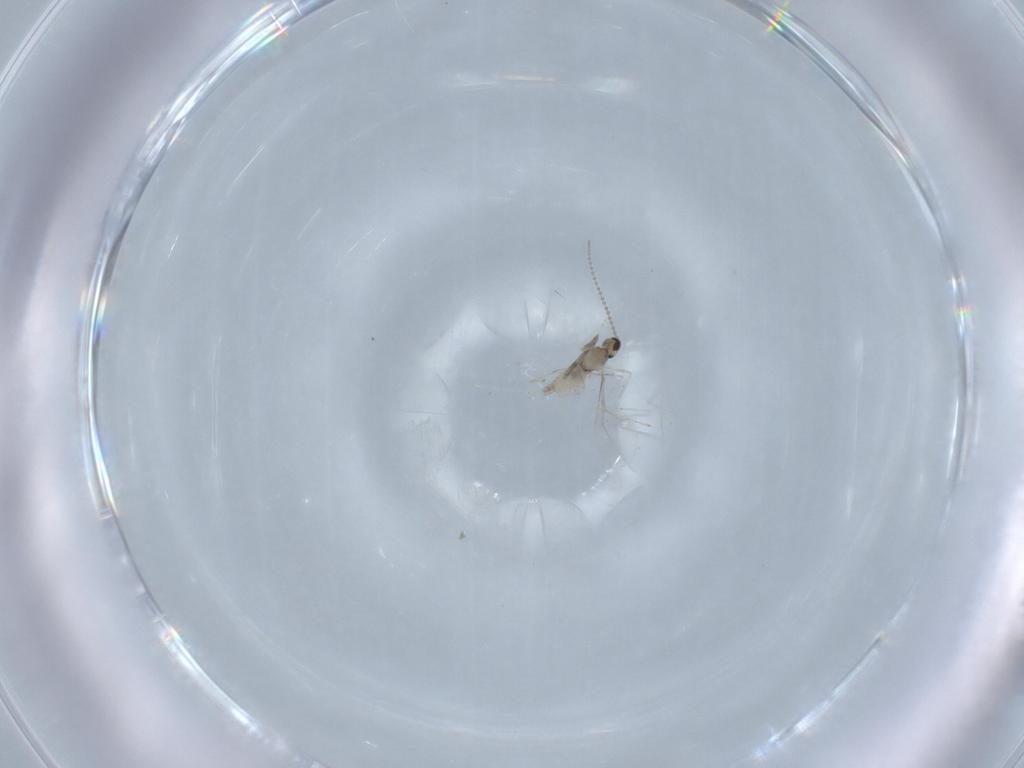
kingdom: Animalia
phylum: Arthropoda
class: Insecta
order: Diptera
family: Cecidomyiidae
